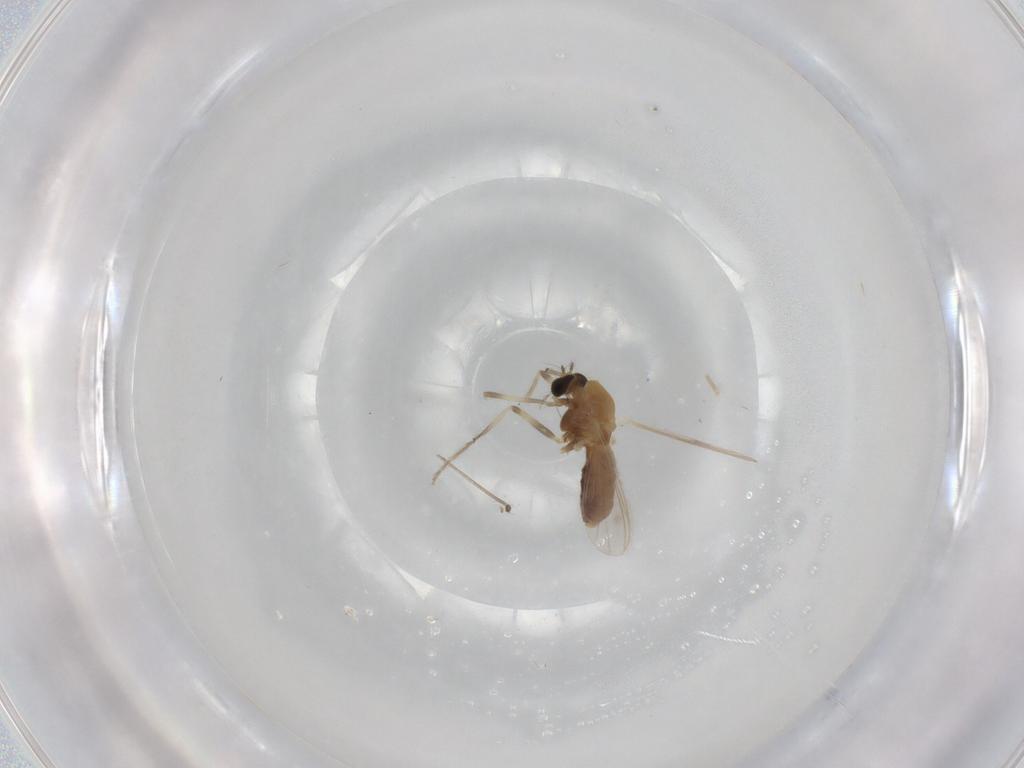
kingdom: Animalia
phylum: Arthropoda
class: Insecta
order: Diptera
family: Chironomidae
